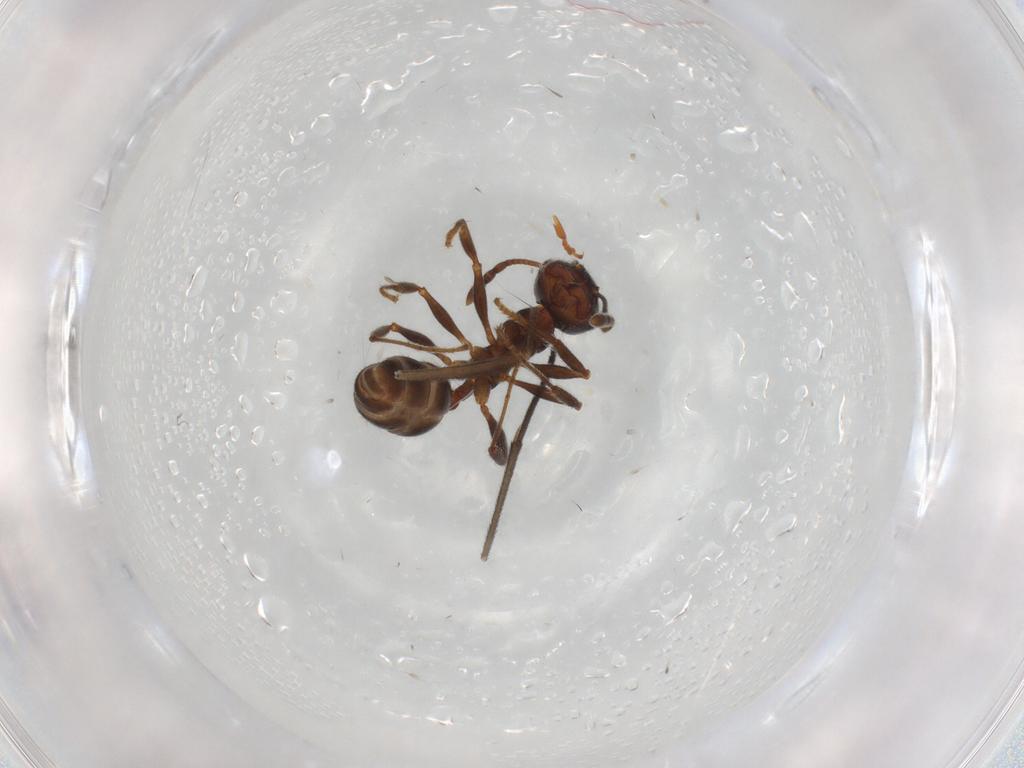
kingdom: Animalia
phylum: Arthropoda
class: Insecta
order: Hymenoptera
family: Formicidae
